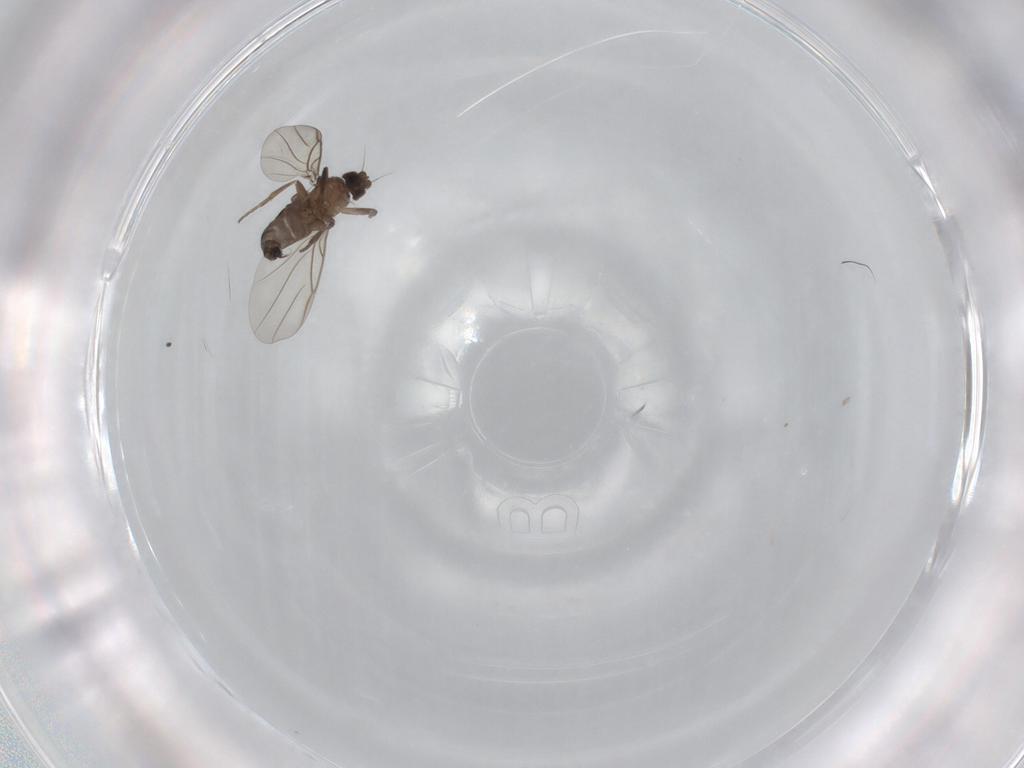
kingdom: Animalia
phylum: Arthropoda
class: Insecta
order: Diptera
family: Phoridae
